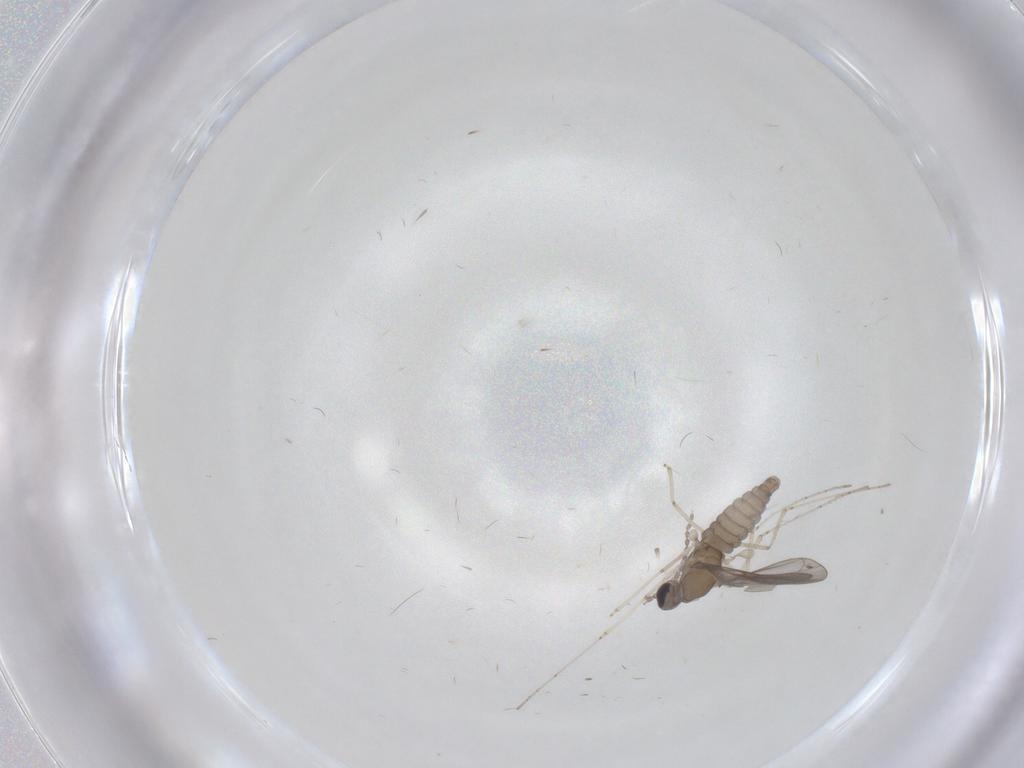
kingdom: Animalia
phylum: Arthropoda
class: Insecta
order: Diptera
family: Cecidomyiidae
